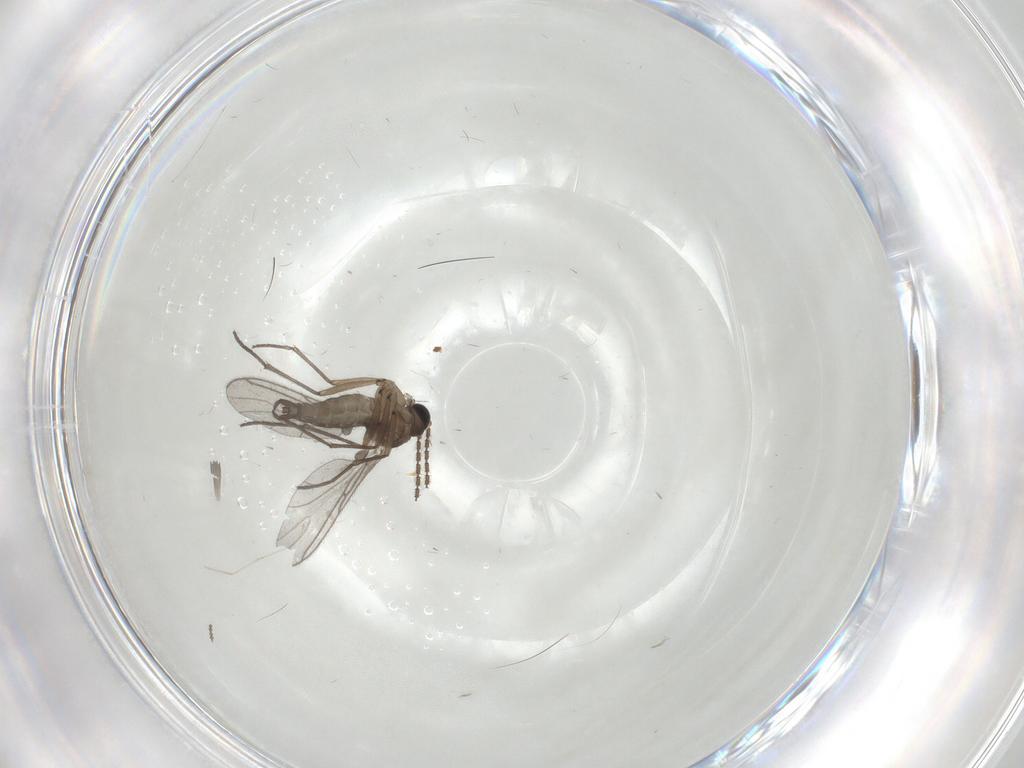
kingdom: Animalia
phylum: Arthropoda
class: Insecta
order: Diptera
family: Cecidomyiidae
